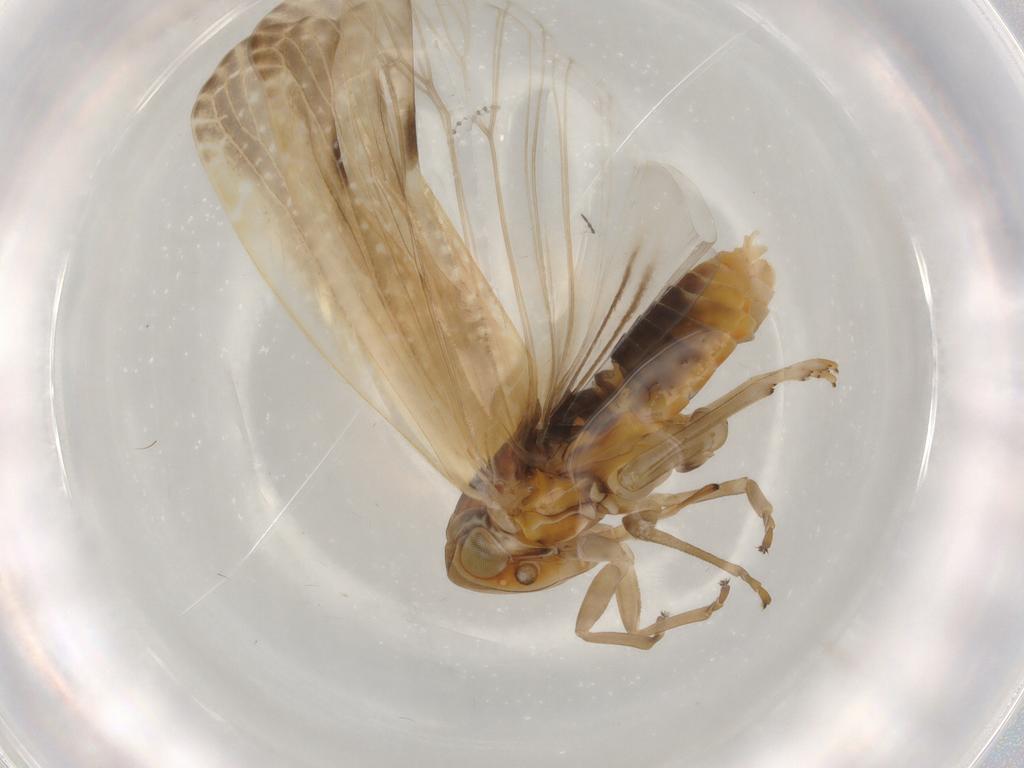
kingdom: Animalia
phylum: Arthropoda
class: Insecta
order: Hemiptera
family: Achilidae
